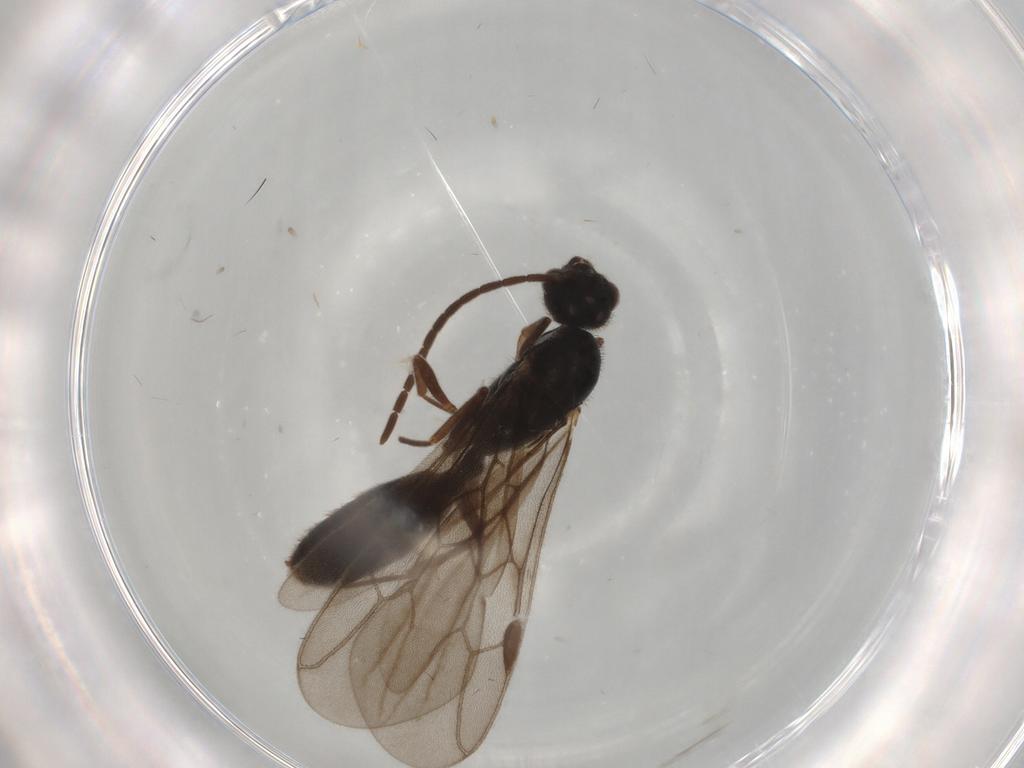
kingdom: Animalia
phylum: Arthropoda
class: Insecta
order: Hymenoptera
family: Formicidae
